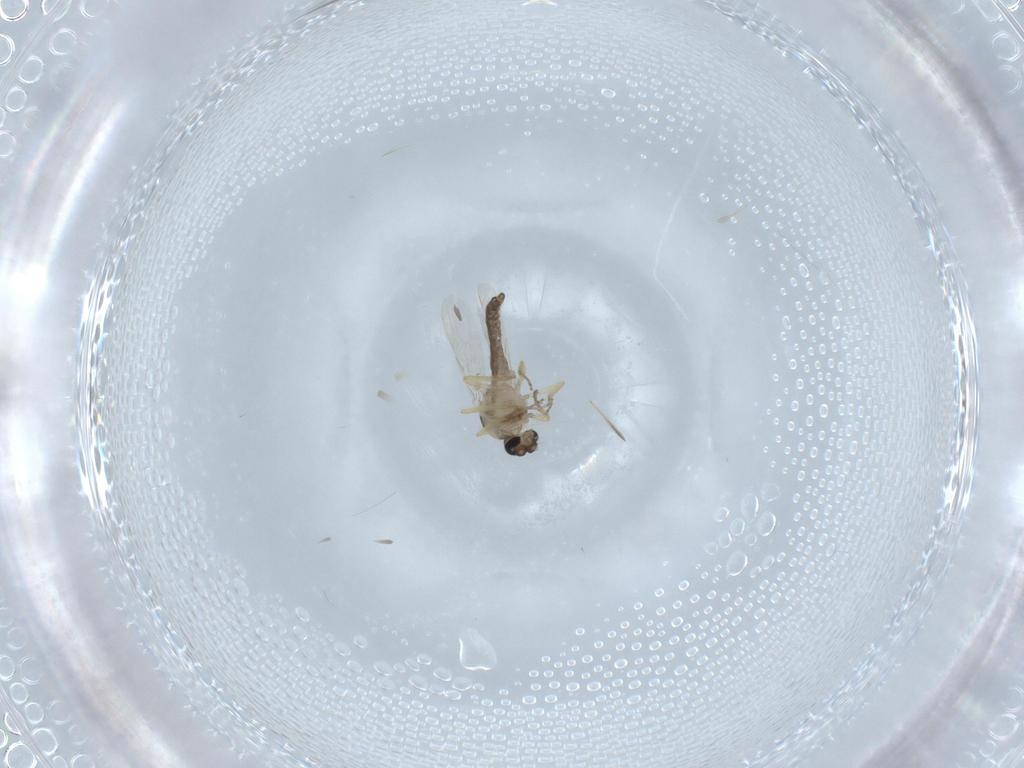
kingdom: Animalia
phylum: Arthropoda
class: Insecta
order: Diptera
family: Ceratopogonidae
